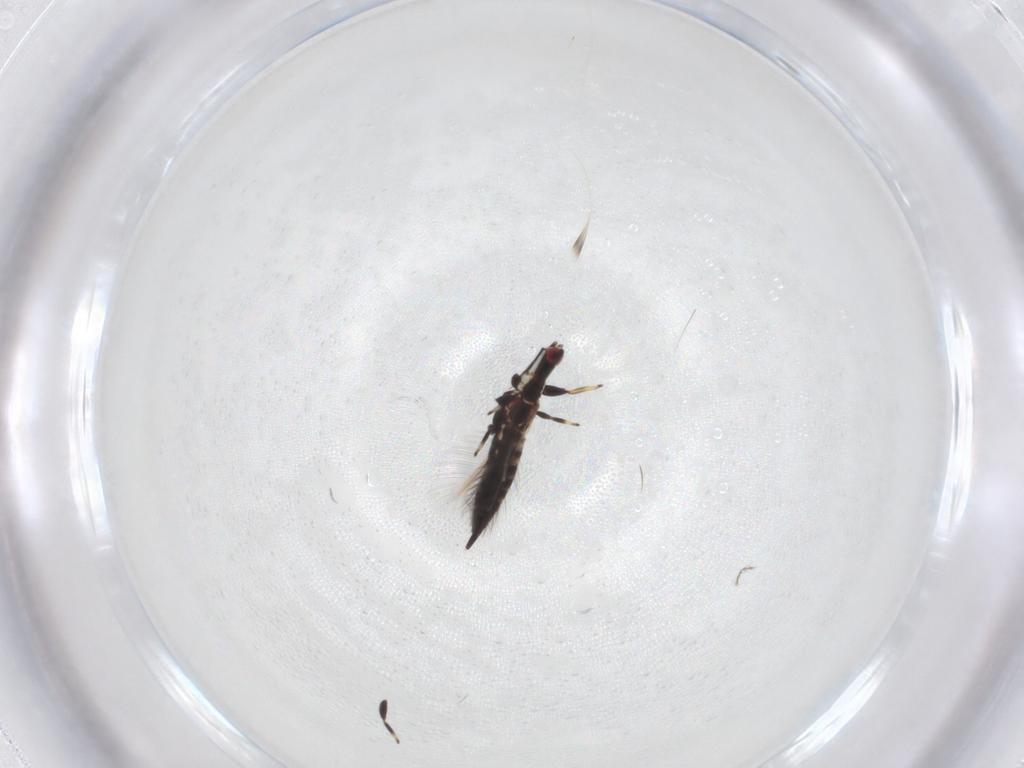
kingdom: Animalia
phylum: Arthropoda
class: Insecta
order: Thysanoptera
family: Phlaeothripidae
